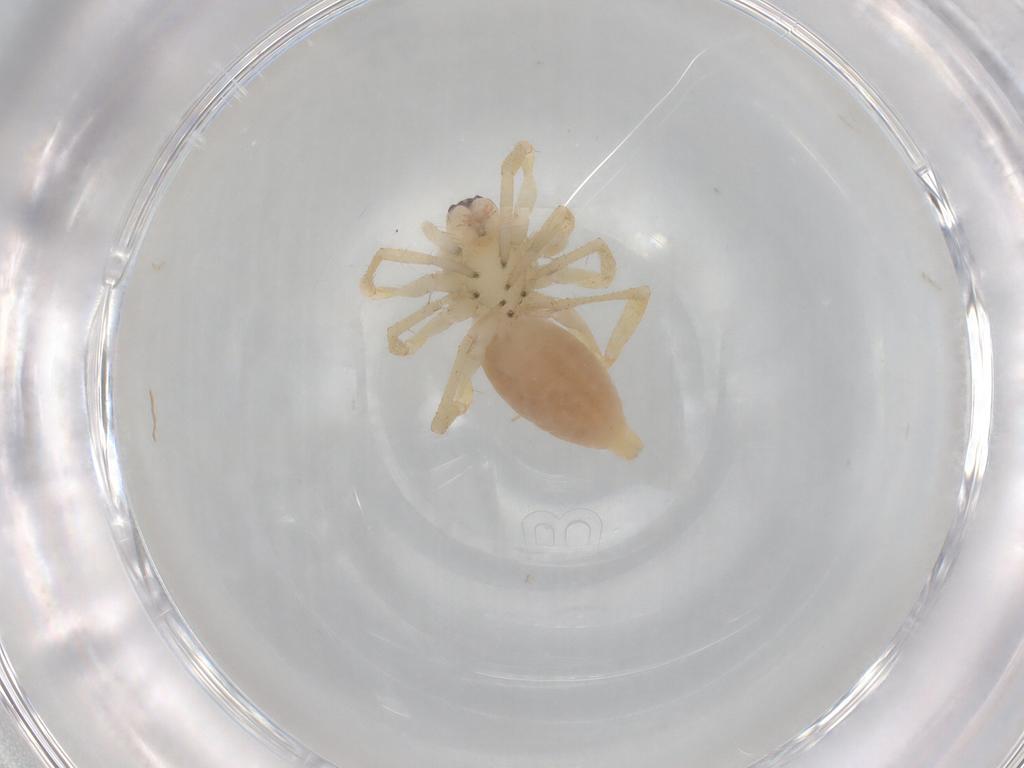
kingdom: Animalia
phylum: Arthropoda
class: Arachnida
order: Araneae
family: Clubionidae
